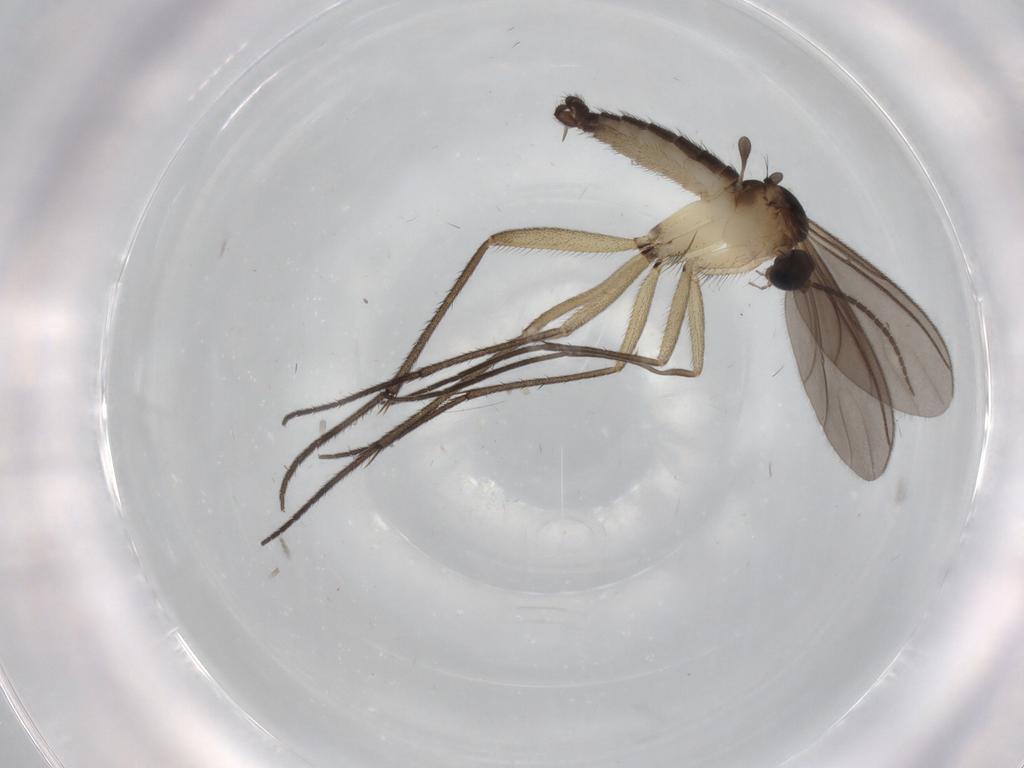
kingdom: Animalia
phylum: Arthropoda
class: Insecta
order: Diptera
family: Sciaridae
